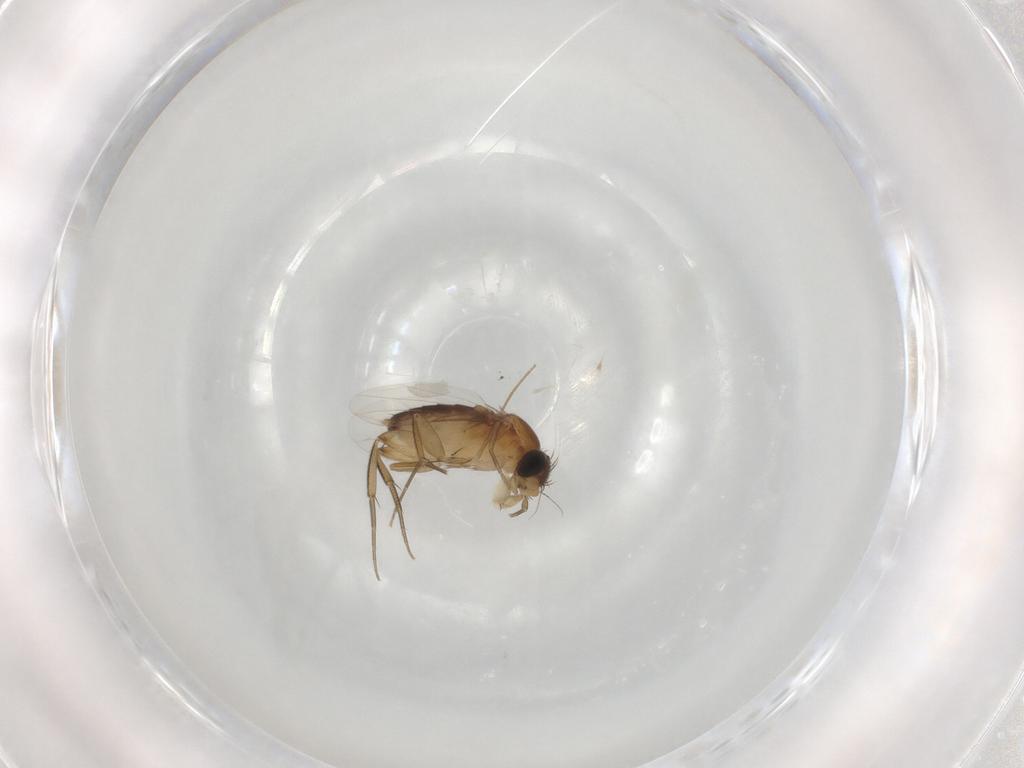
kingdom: Animalia
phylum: Arthropoda
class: Insecta
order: Diptera
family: Phoridae
